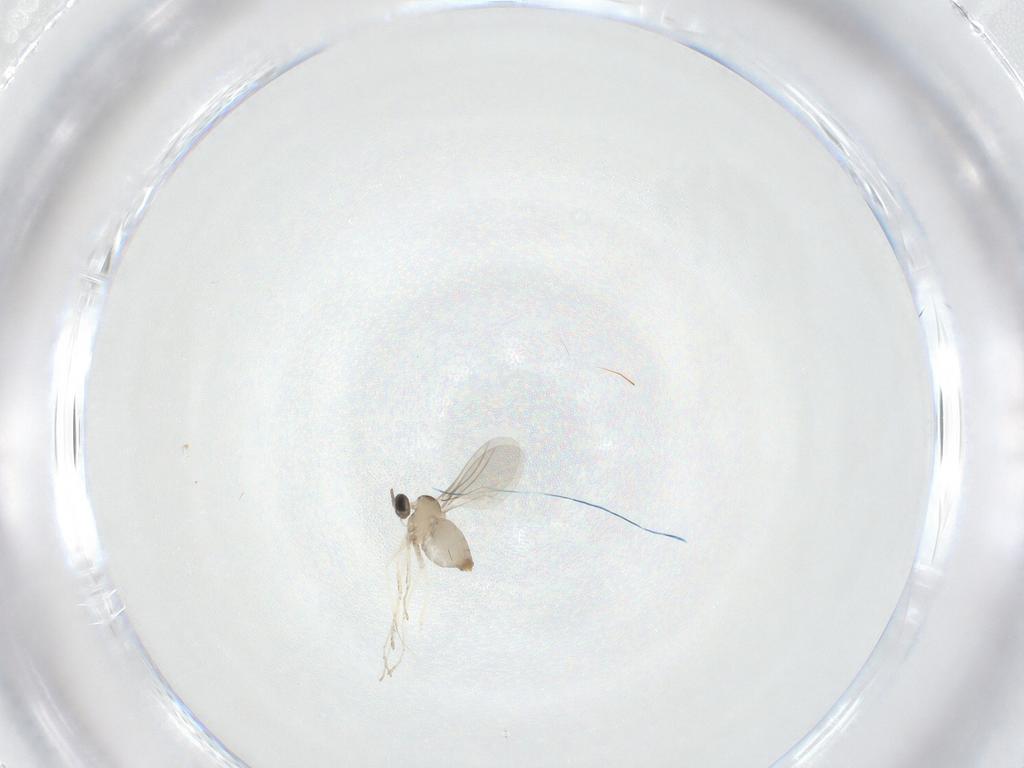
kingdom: Animalia
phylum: Arthropoda
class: Insecta
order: Diptera
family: Cecidomyiidae
